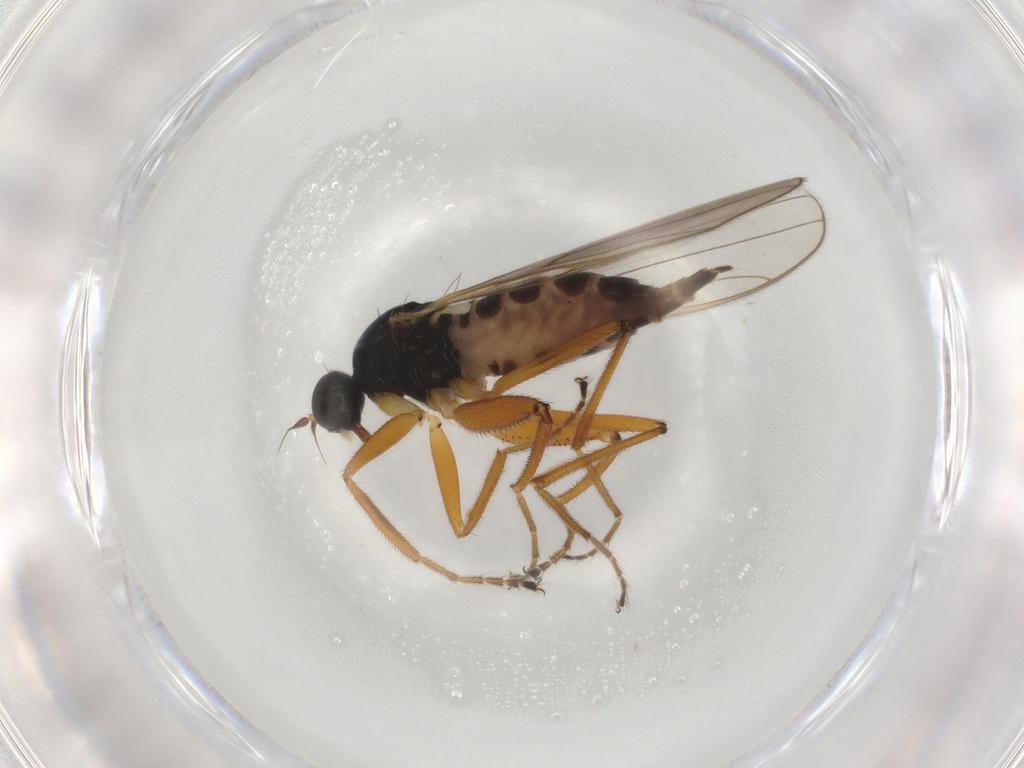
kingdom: Animalia
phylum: Arthropoda
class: Insecta
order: Diptera
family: Hybotidae
